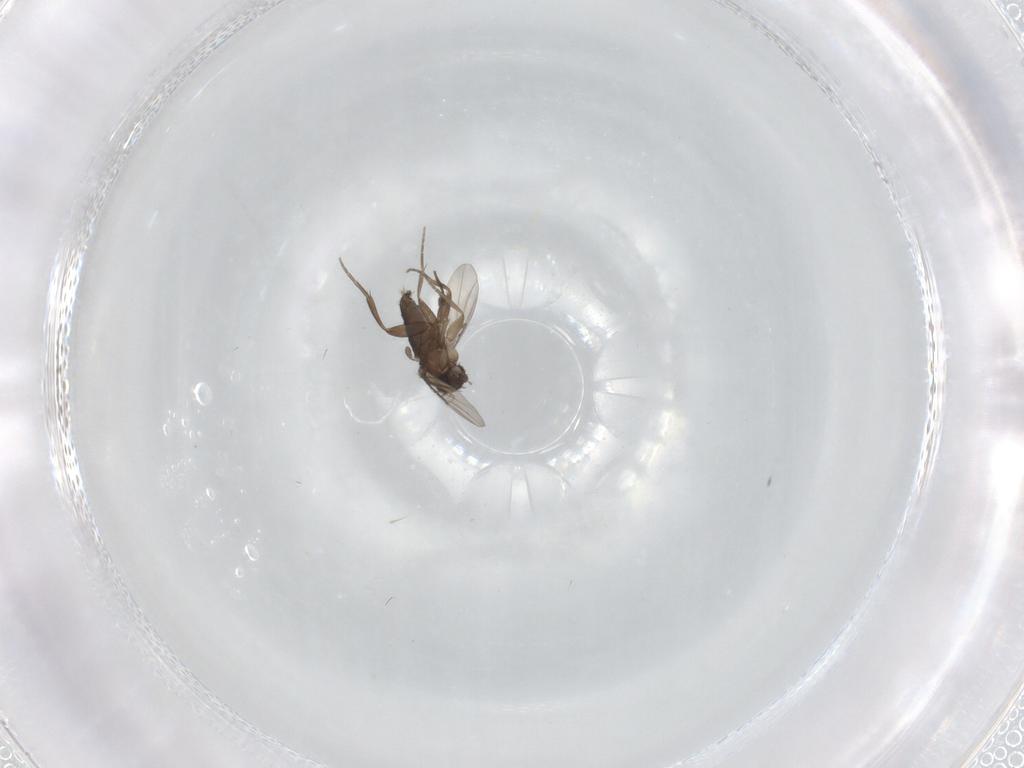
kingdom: Animalia
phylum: Arthropoda
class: Insecta
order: Diptera
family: Phoridae
